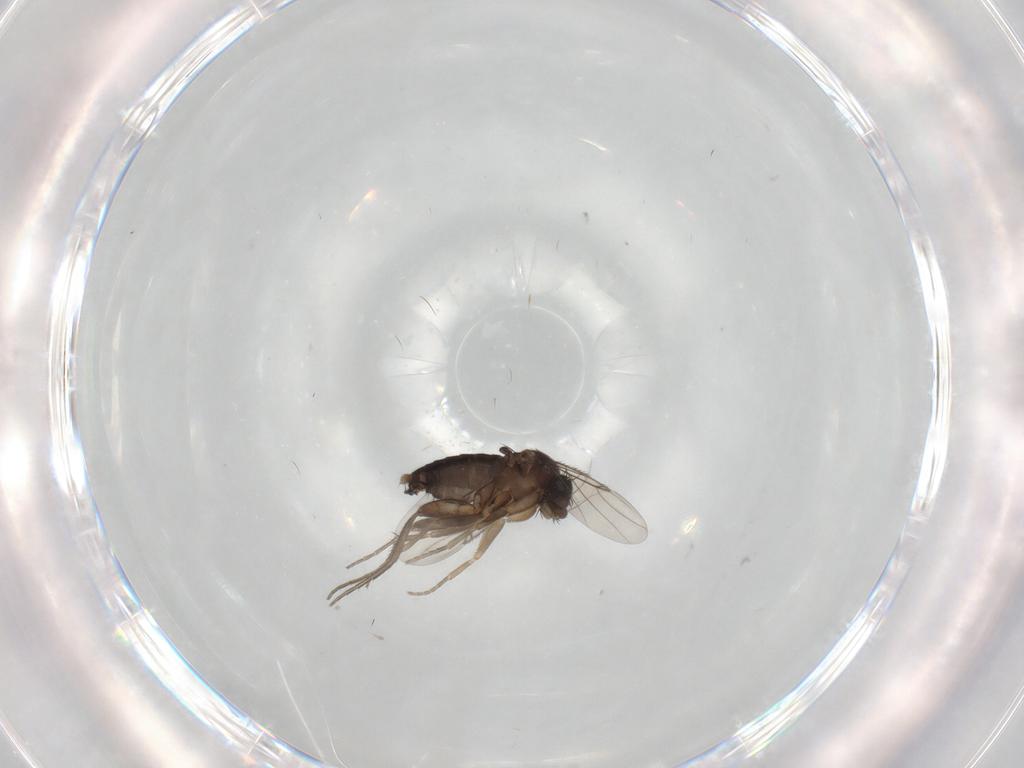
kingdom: Animalia
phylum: Arthropoda
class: Insecta
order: Diptera
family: Phoridae
